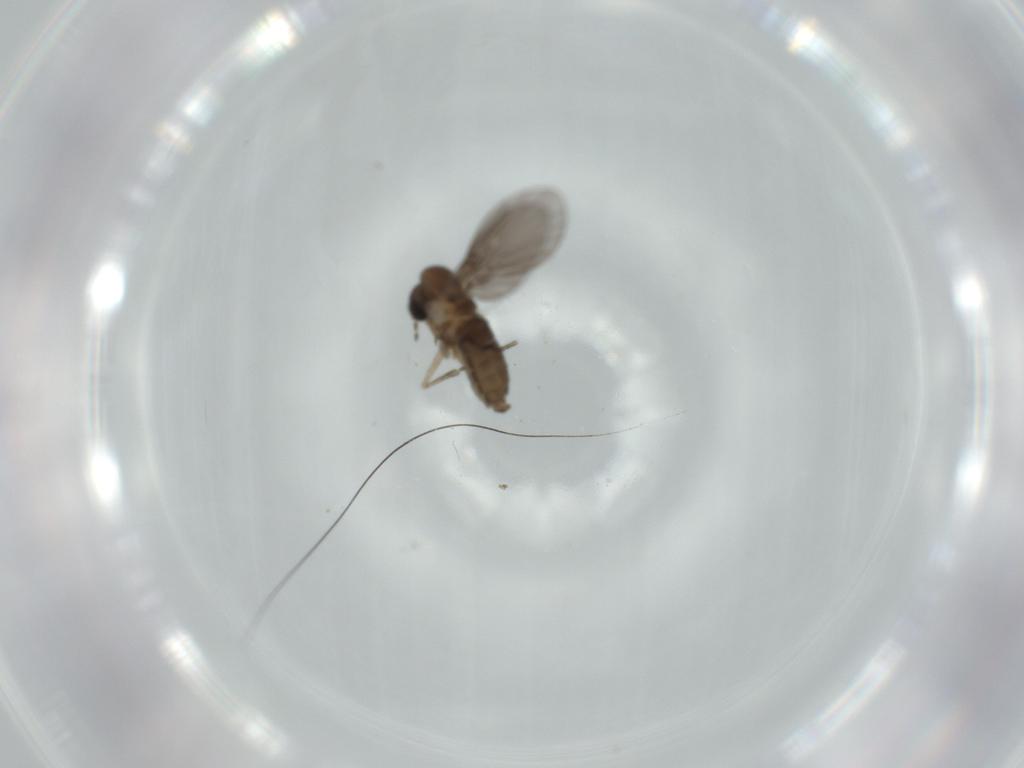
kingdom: Animalia
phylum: Arthropoda
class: Insecta
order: Diptera
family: Psychodidae
